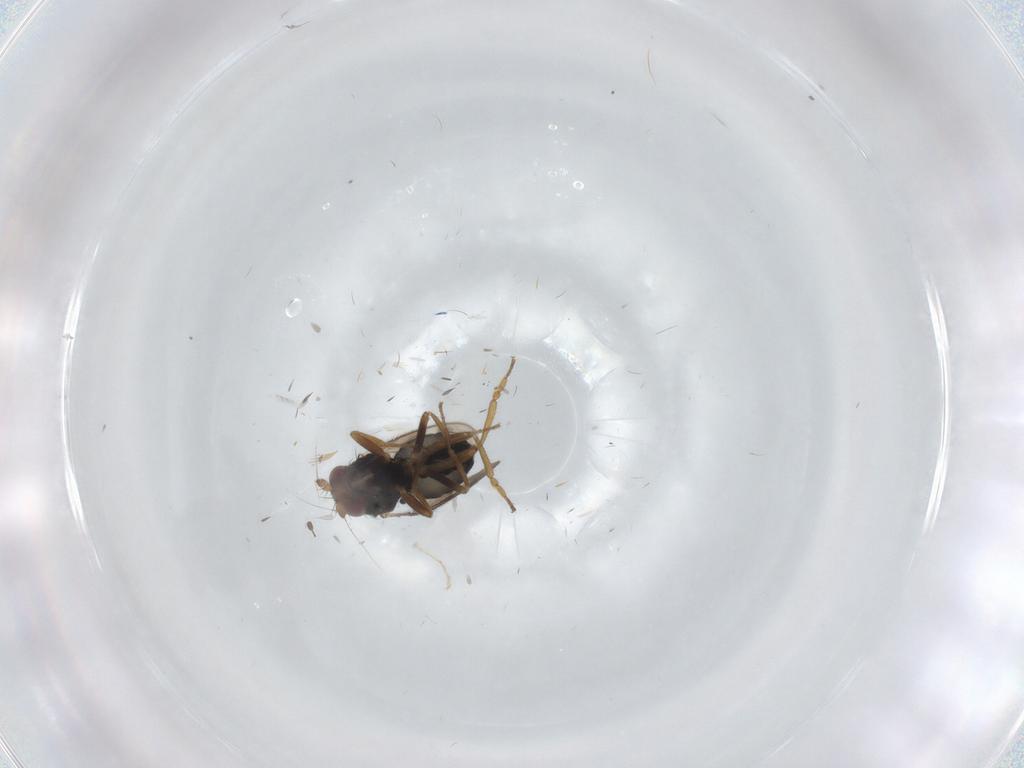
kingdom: Animalia
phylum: Arthropoda
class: Insecta
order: Diptera
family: Sphaeroceridae
